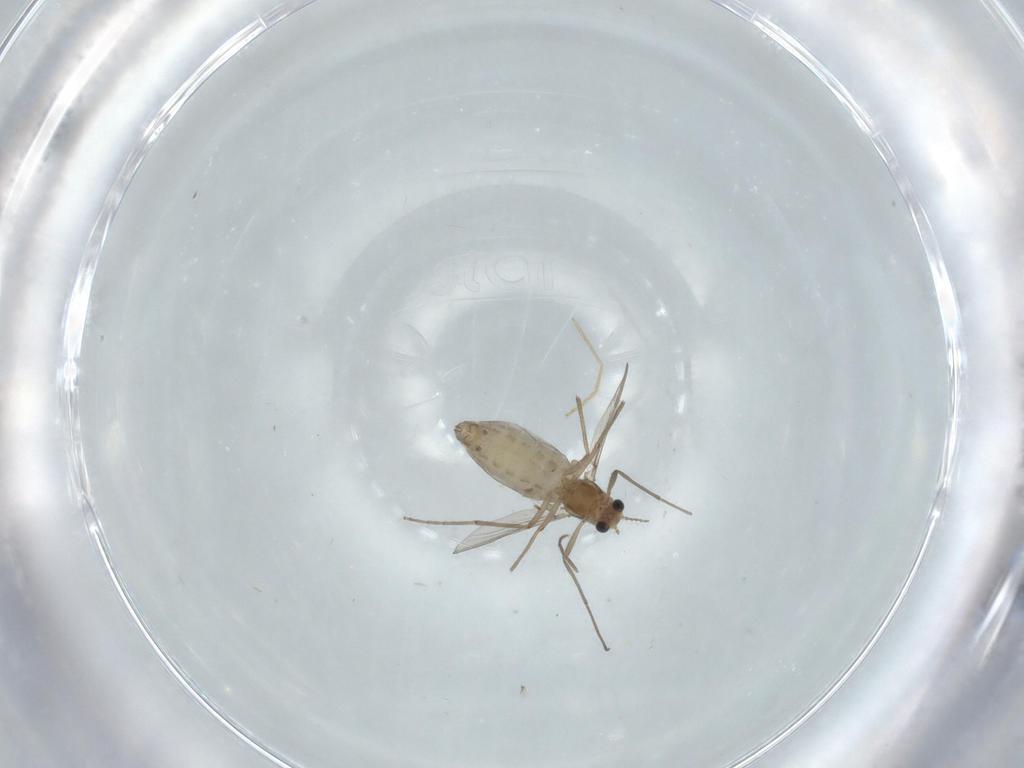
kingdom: Animalia
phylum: Arthropoda
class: Insecta
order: Diptera
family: Chironomidae
